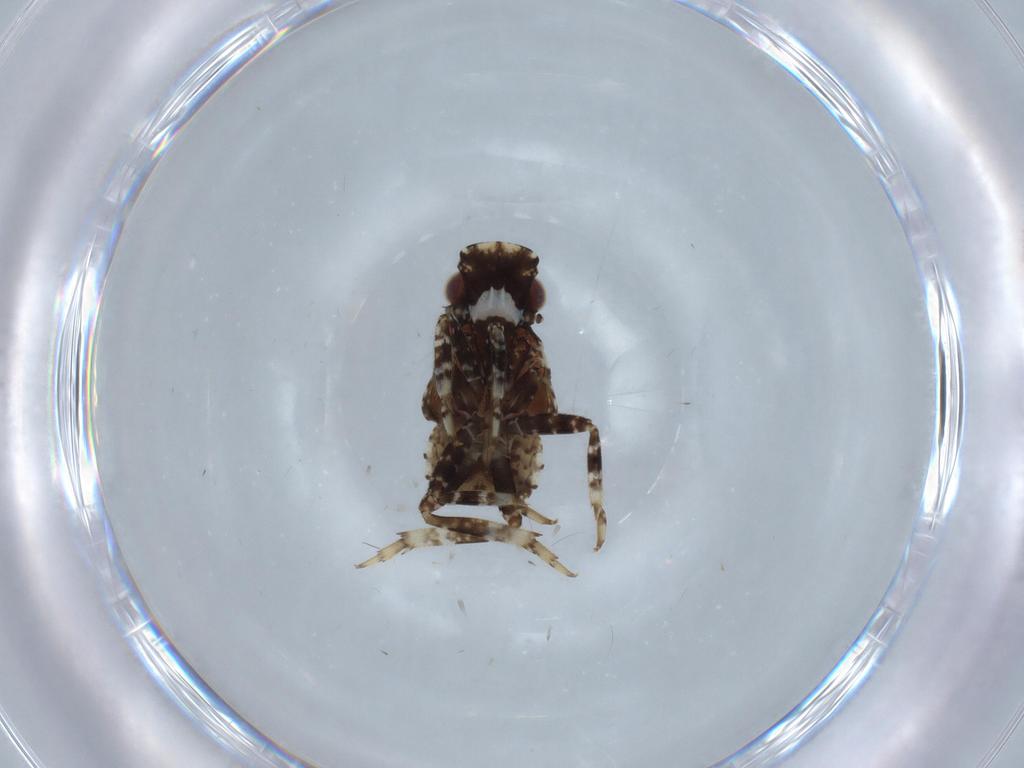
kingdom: Animalia
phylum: Arthropoda
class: Insecta
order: Hemiptera
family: Fulgoridae
